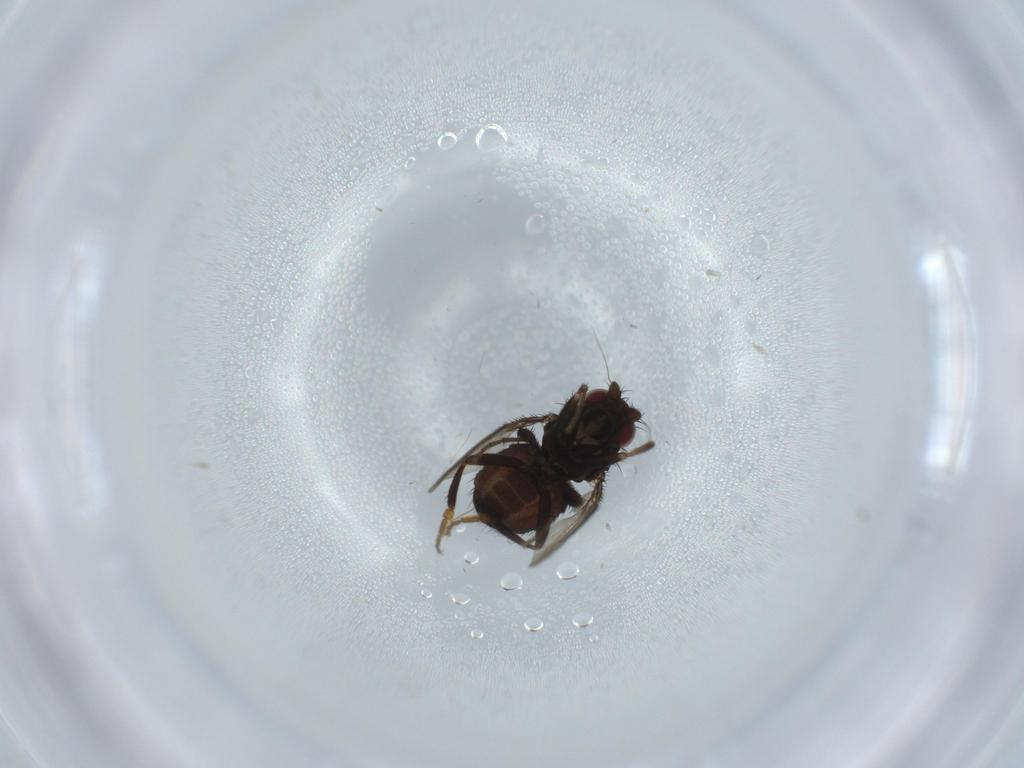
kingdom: Animalia
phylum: Arthropoda
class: Insecta
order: Diptera
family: Sphaeroceridae
